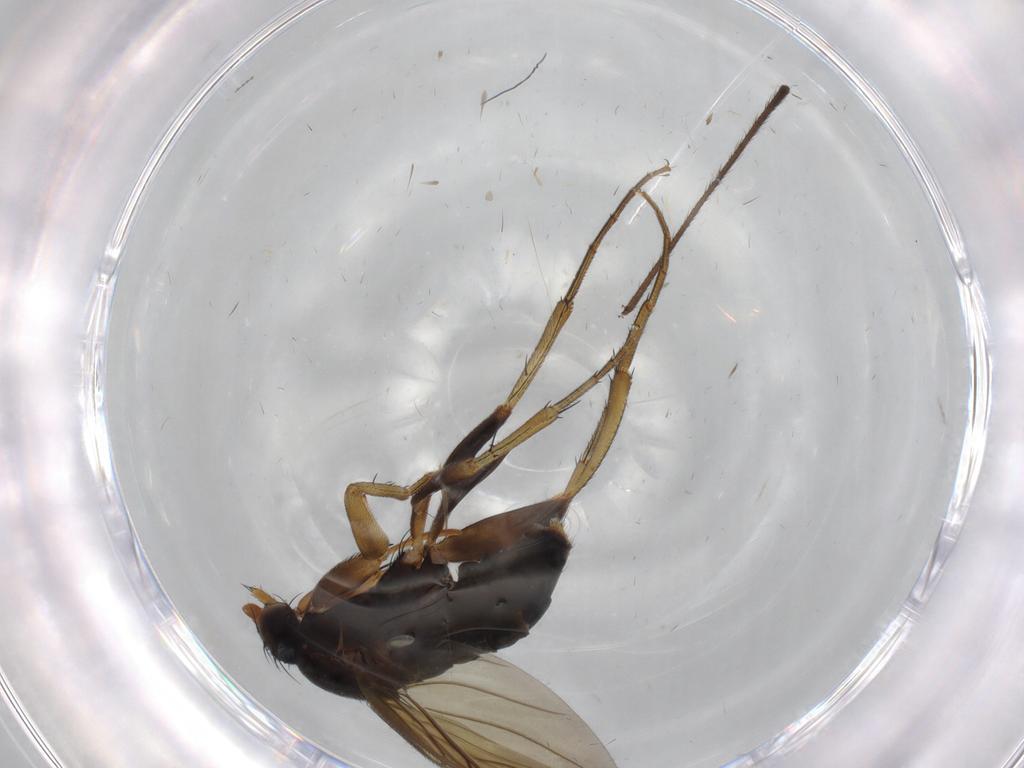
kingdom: Animalia
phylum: Arthropoda
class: Insecta
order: Diptera
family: Phoridae
